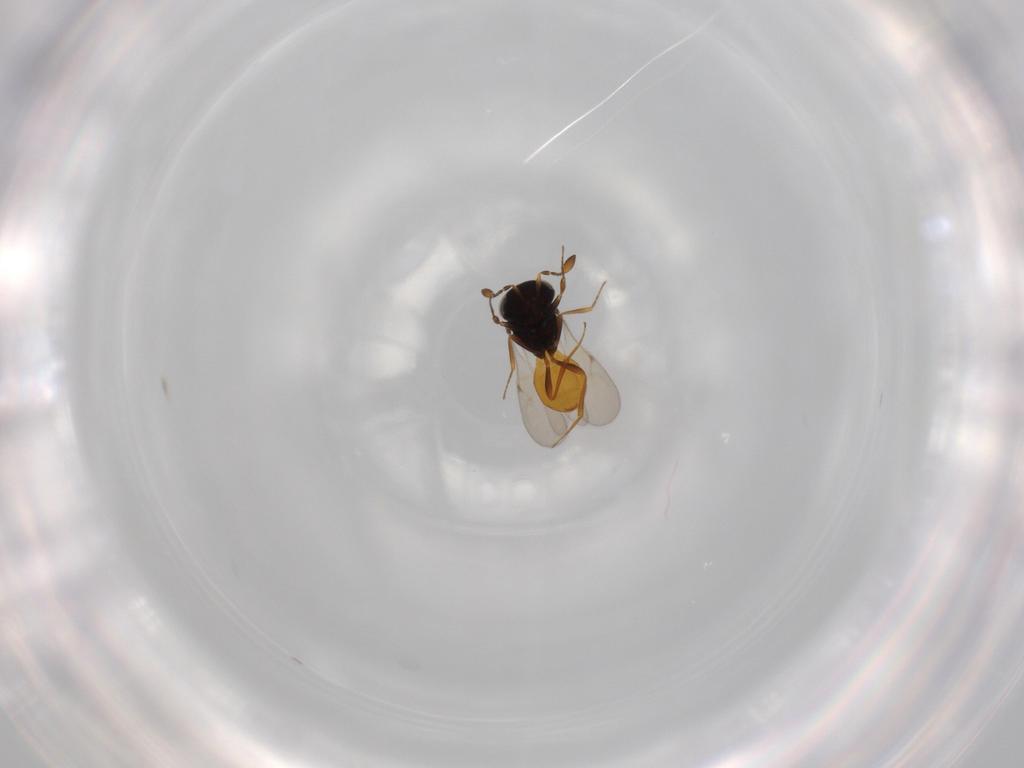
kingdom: Animalia
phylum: Arthropoda
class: Insecta
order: Hymenoptera
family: Scelionidae
